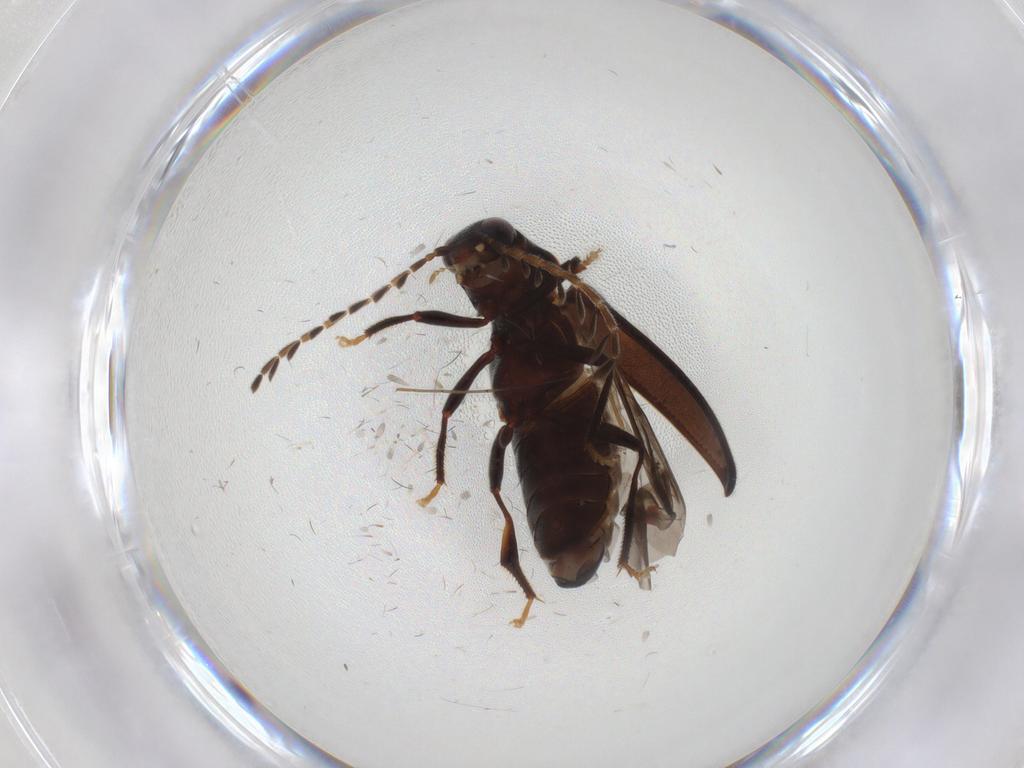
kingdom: Animalia
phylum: Arthropoda
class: Insecta
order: Coleoptera
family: Ptilodactylidae
